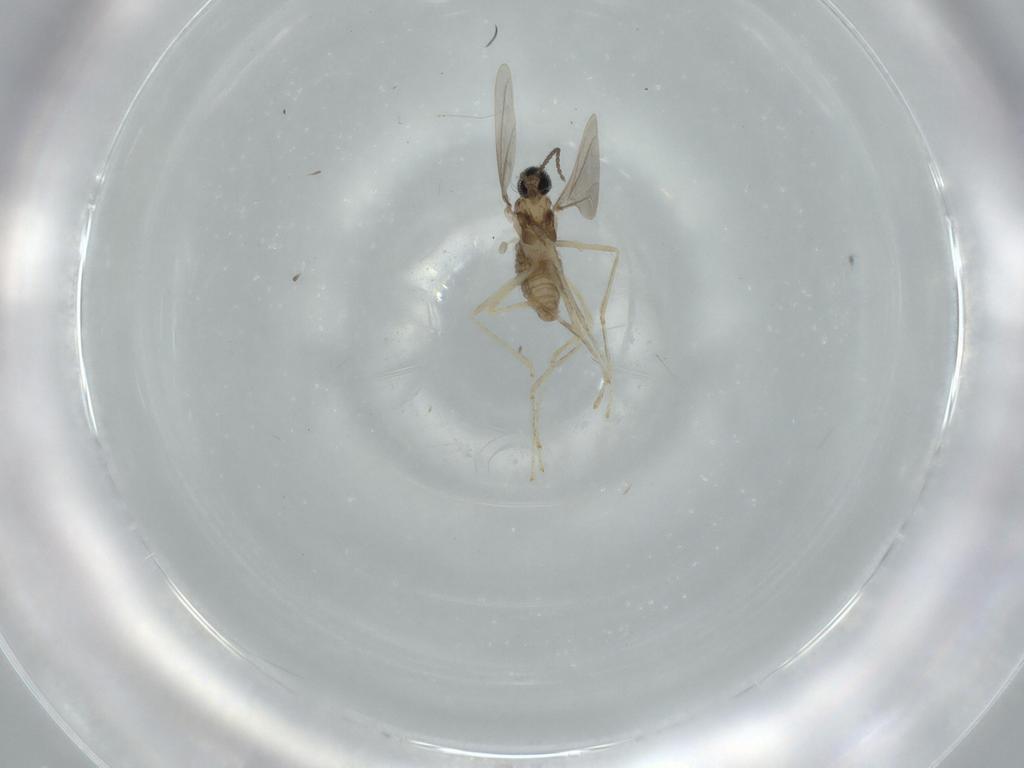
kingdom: Animalia
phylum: Arthropoda
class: Insecta
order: Diptera
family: Cecidomyiidae
